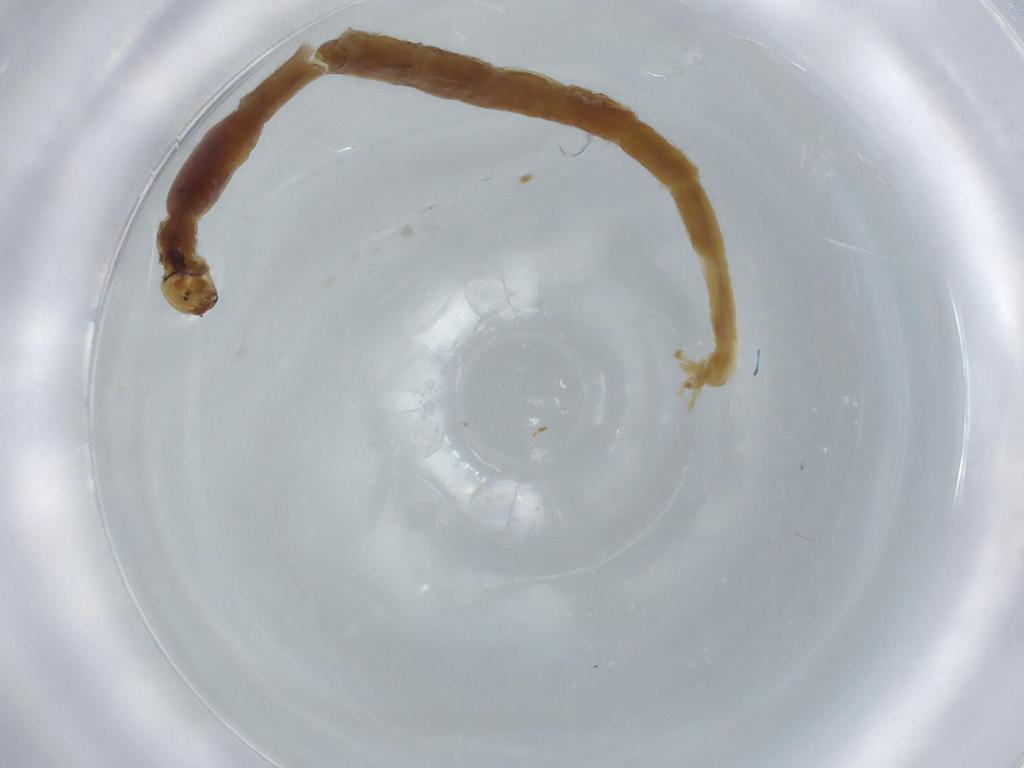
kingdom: Animalia
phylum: Arthropoda
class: Insecta
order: Diptera
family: Chironomidae
